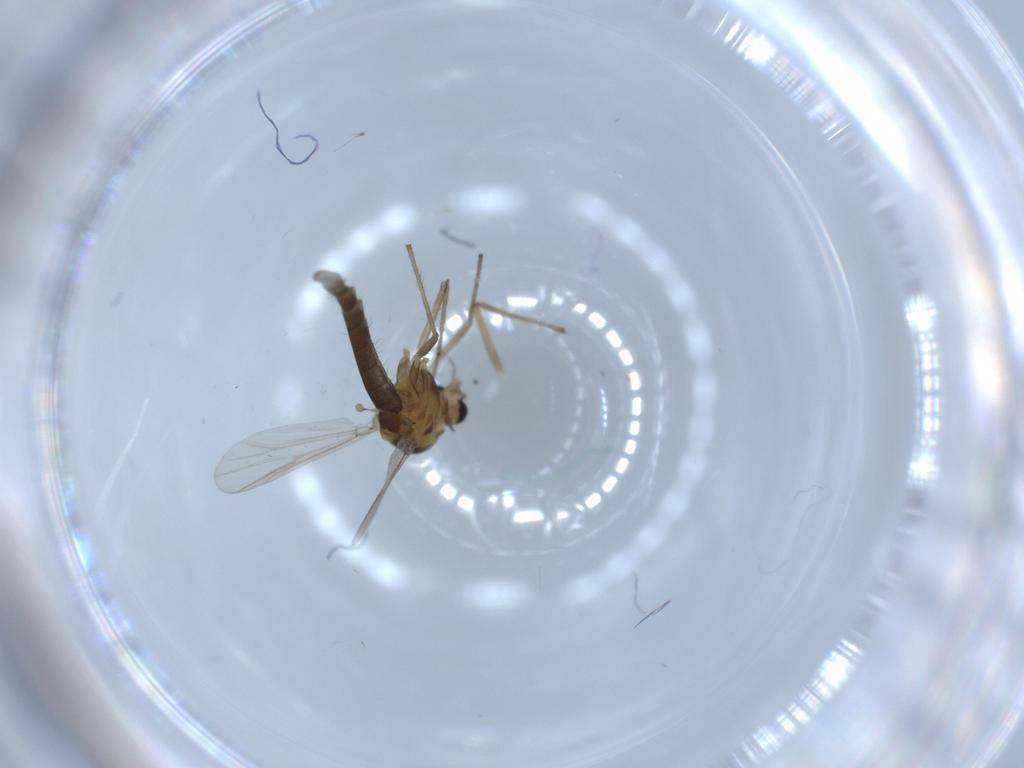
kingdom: Animalia
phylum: Arthropoda
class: Insecta
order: Diptera
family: Chironomidae
